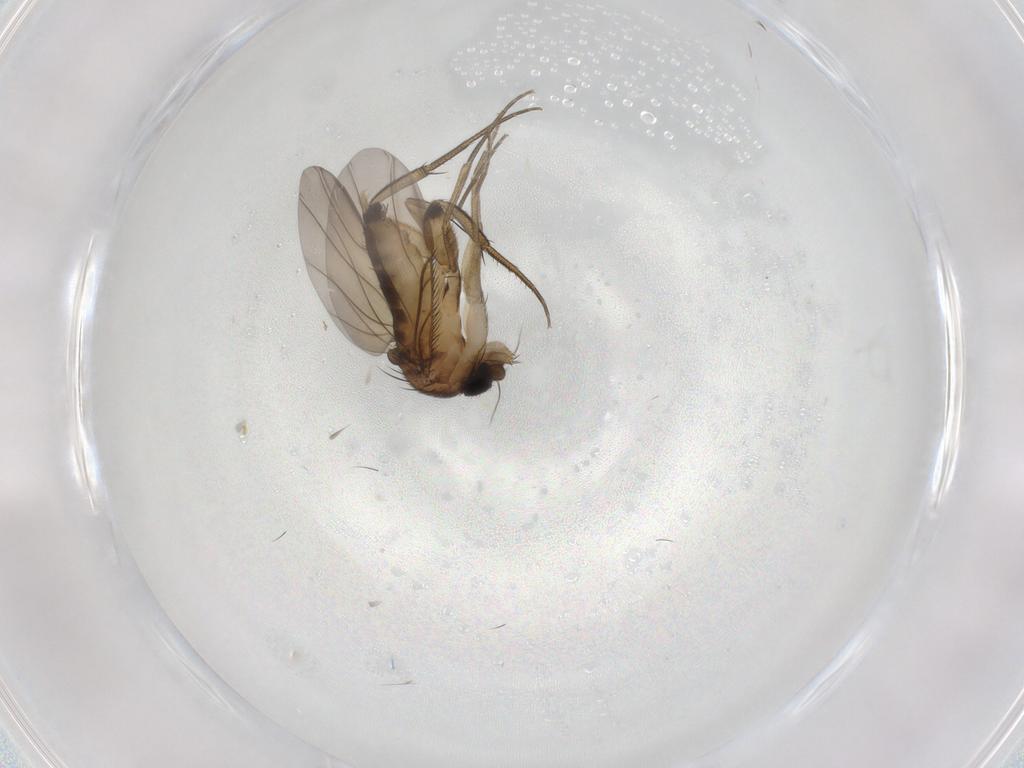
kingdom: Animalia
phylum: Arthropoda
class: Insecta
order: Diptera
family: Phoridae
